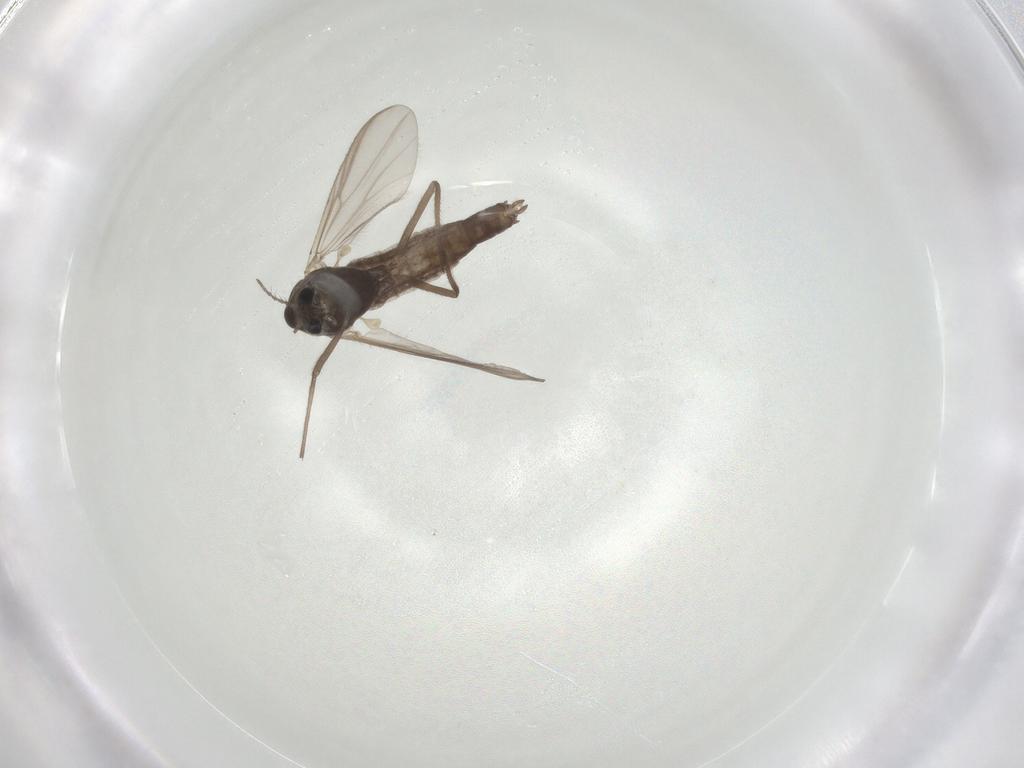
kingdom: Animalia
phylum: Arthropoda
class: Insecta
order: Diptera
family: Chironomidae
